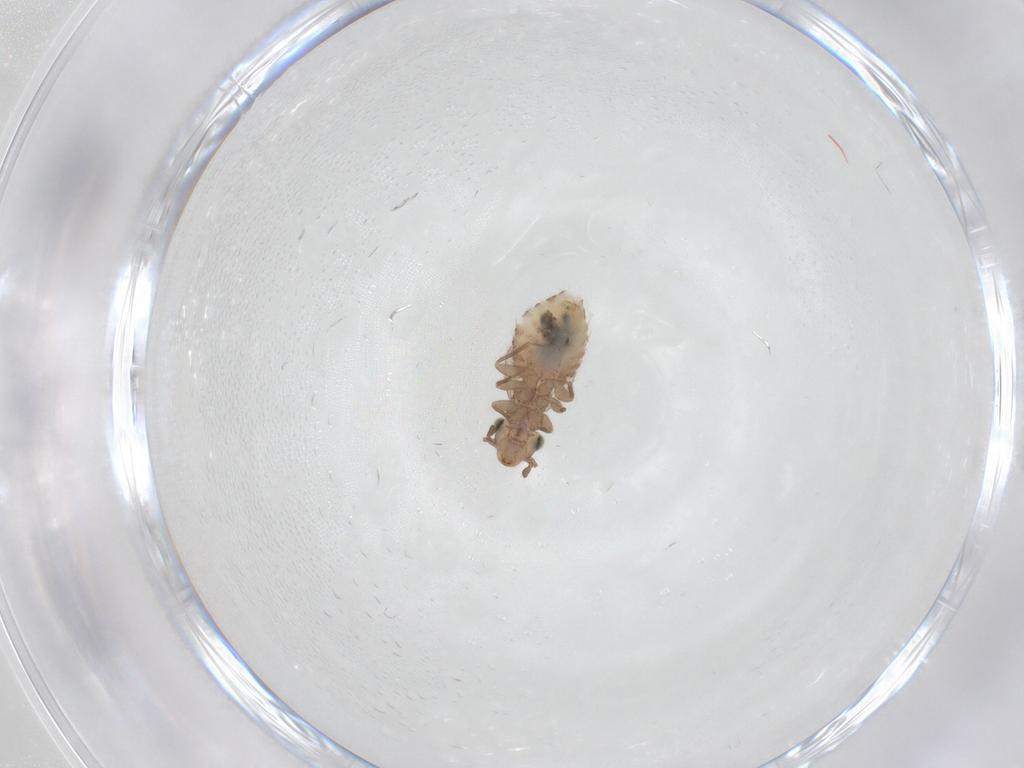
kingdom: Animalia
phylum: Arthropoda
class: Insecta
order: Psocodea
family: Psoquillidae
